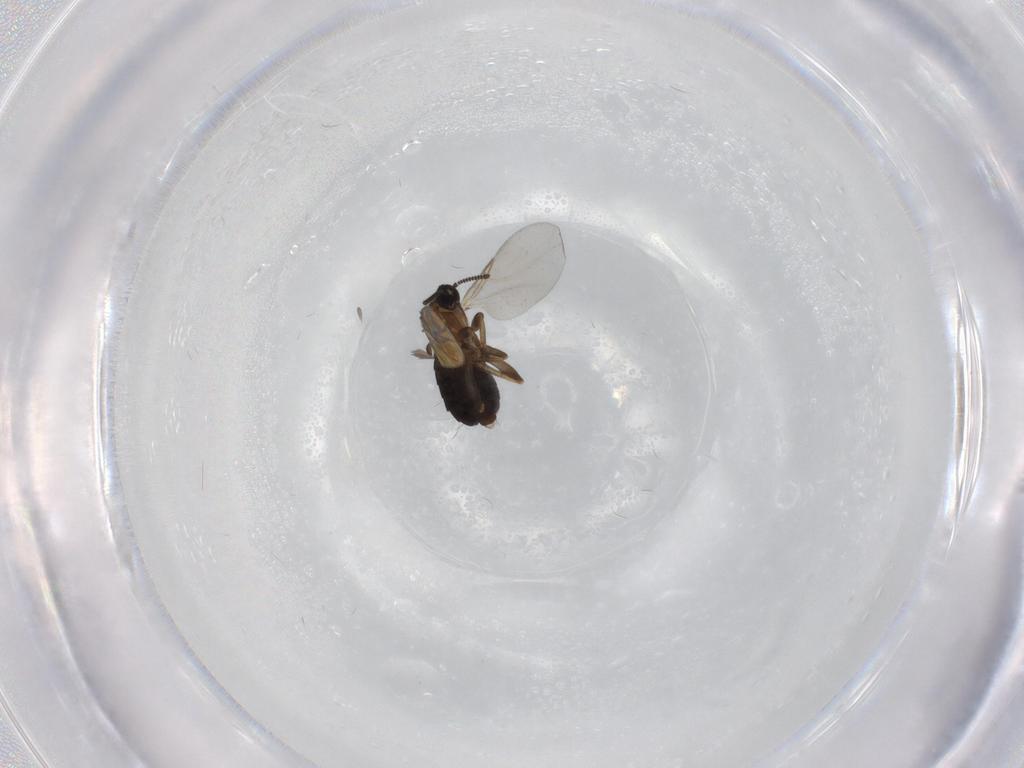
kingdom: Animalia
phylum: Arthropoda
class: Insecta
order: Diptera
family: Scatopsidae
